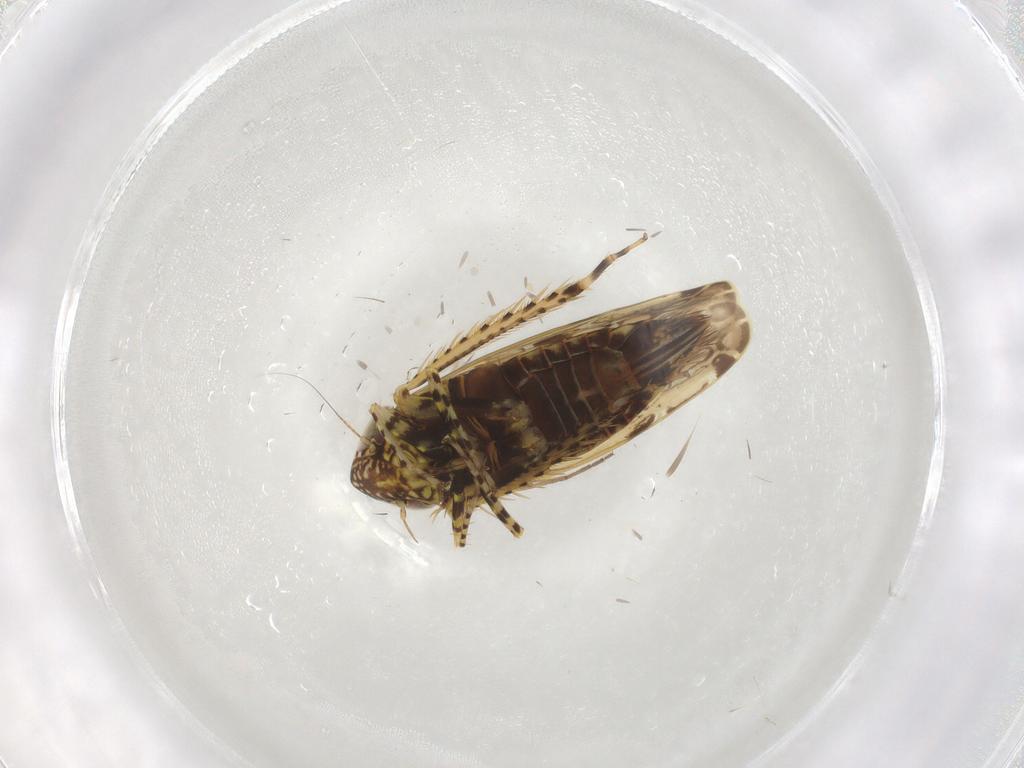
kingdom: Animalia
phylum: Arthropoda
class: Insecta
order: Hemiptera
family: Cicadellidae
